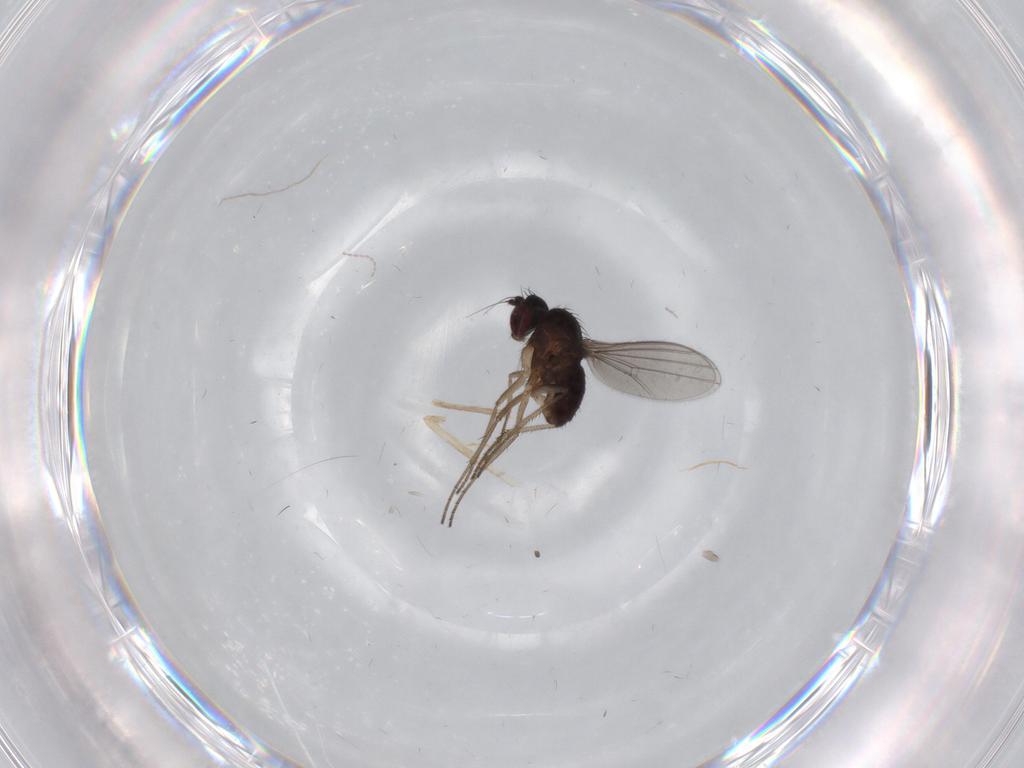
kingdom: Animalia
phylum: Arthropoda
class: Insecta
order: Diptera
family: Dolichopodidae
